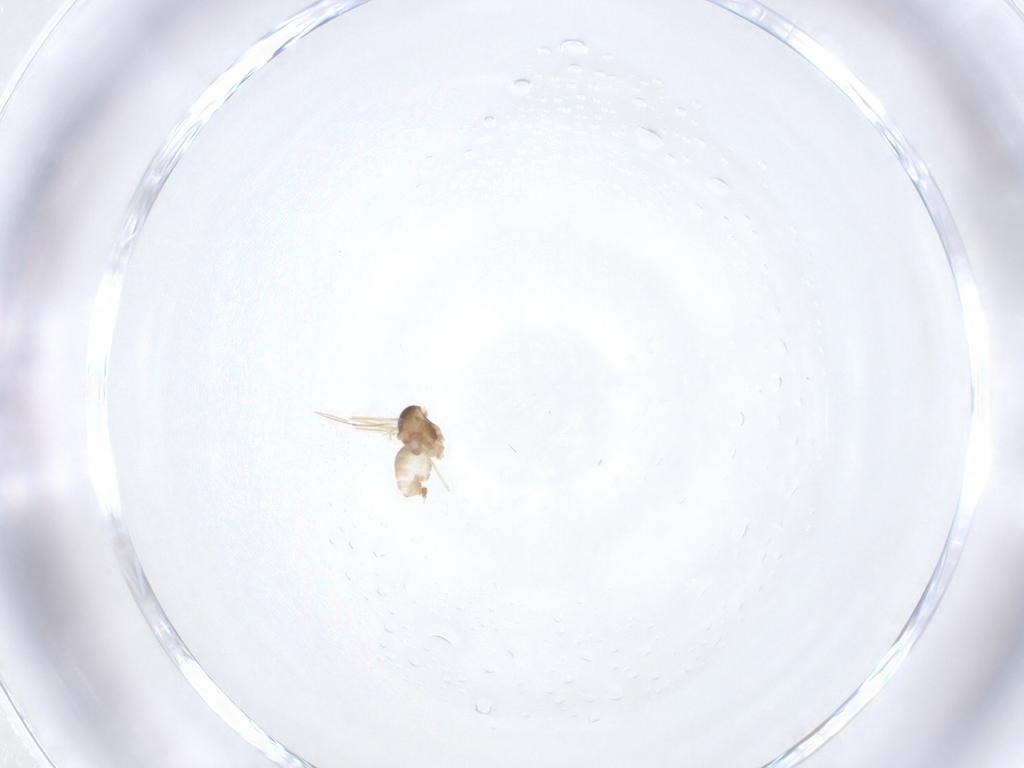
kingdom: Animalia
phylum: Arthropoda
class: Insecta
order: Diptera
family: Cecidomyiidae
